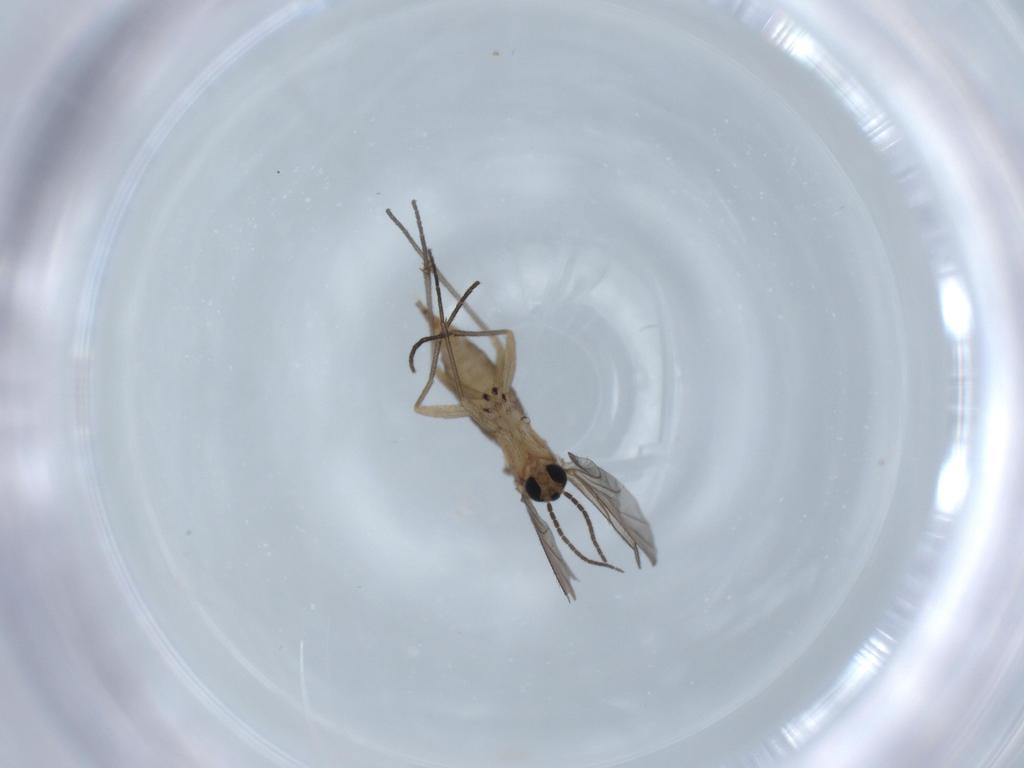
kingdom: Animalia
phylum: Arthropoda
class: Insecta
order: Diptera
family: Sciaridae
